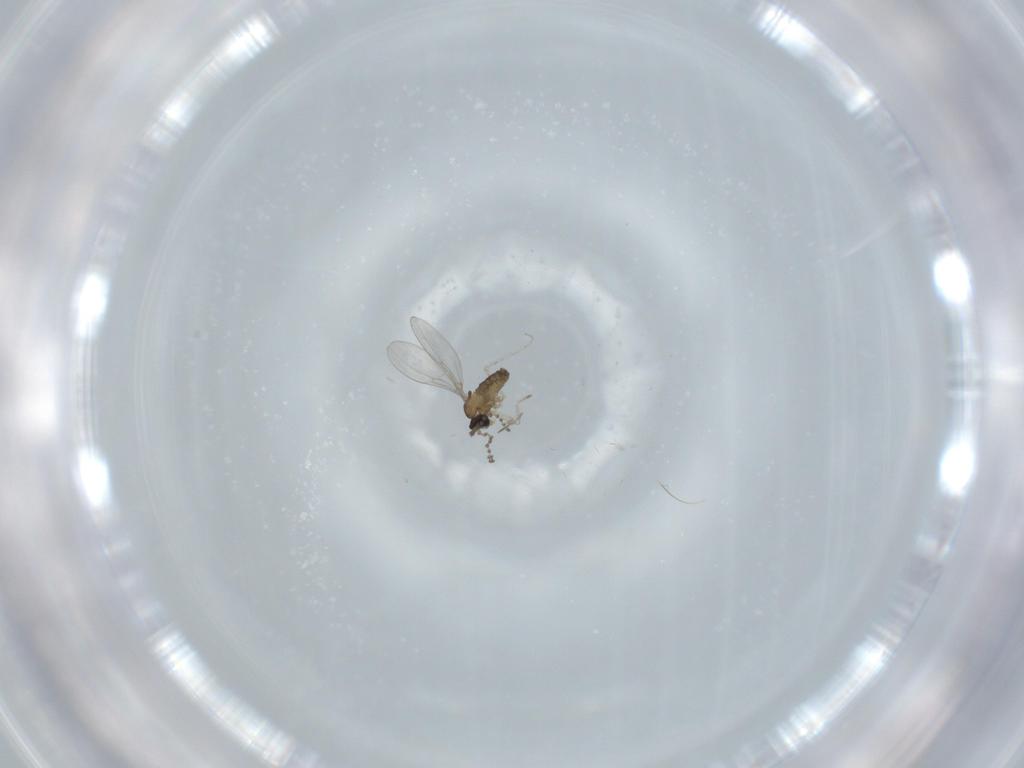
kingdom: Animalia
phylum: Arthropoda
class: Insecta
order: Diptera
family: Cecidomyiidae
